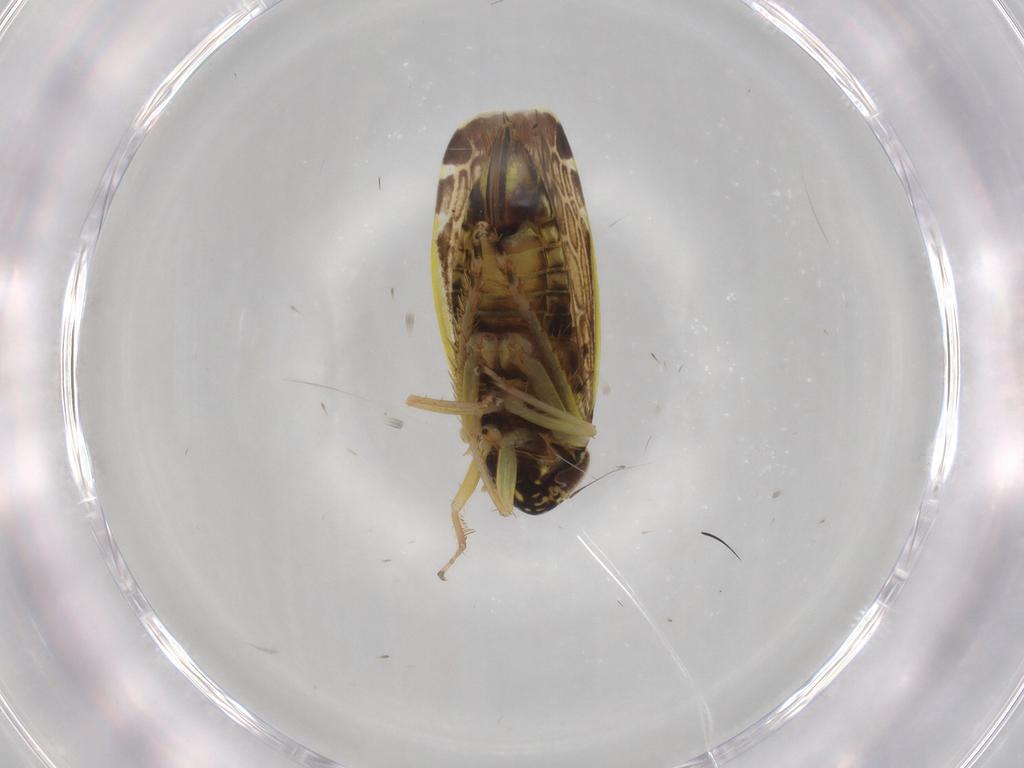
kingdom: Animalia
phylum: Arthropoda
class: Insecta
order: Hemiptera
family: Cicadellidae
